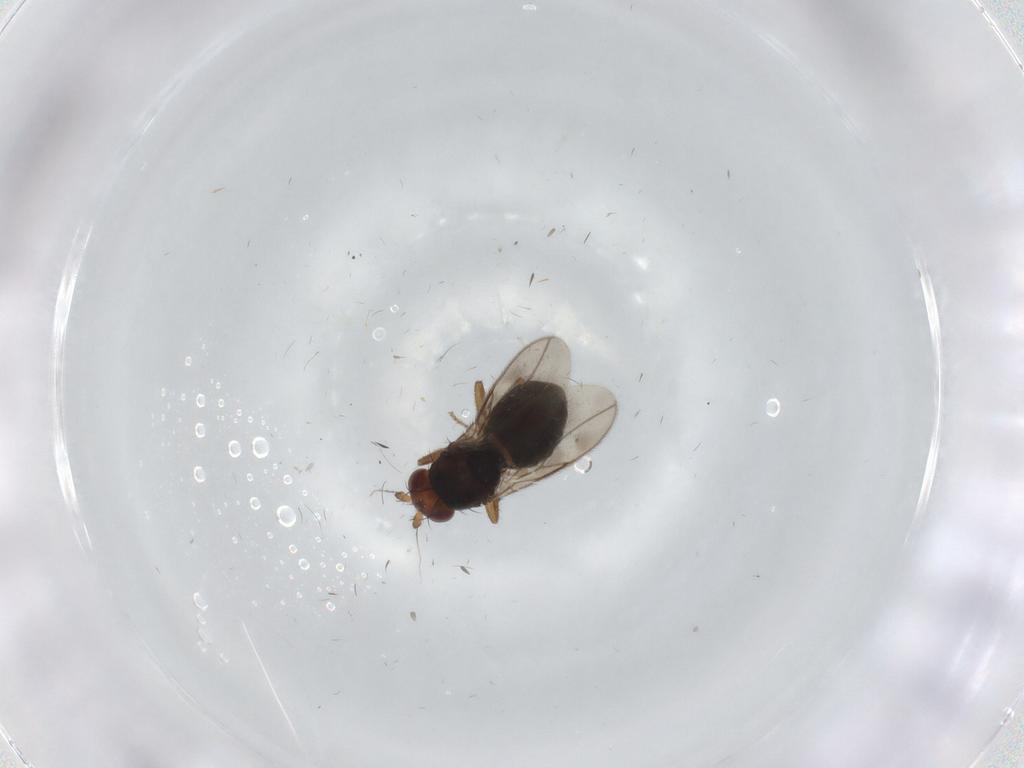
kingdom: Animalia
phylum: Arthropoda
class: Insecta
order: Diptera
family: Sphaeroceridae
